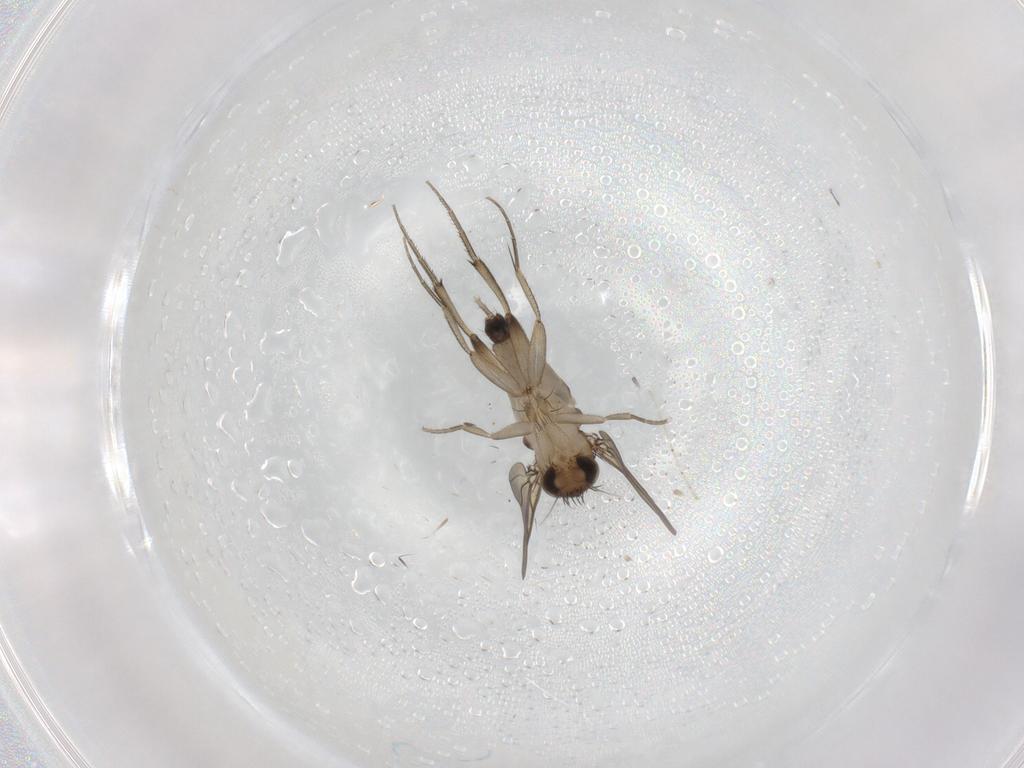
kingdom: Animalia
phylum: Arthropoda
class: Insecta
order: Diptera
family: Phoridae
